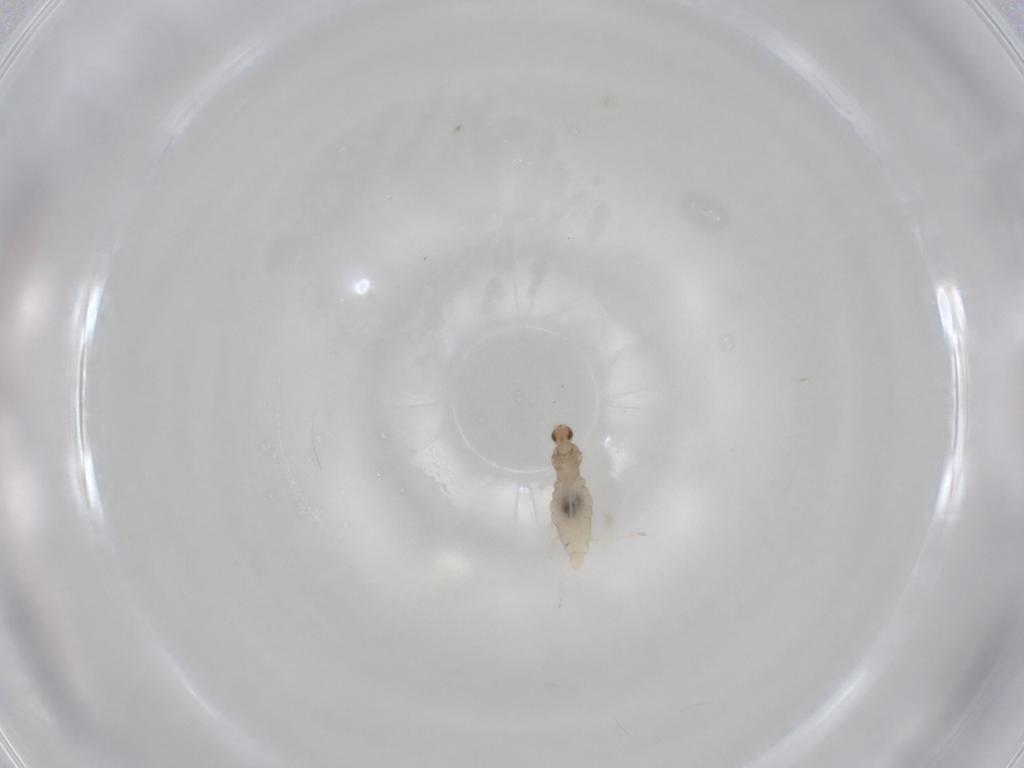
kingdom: Animalia
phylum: Arthropoda
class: Insecta
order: Diptera
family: Cecidomyiidae
